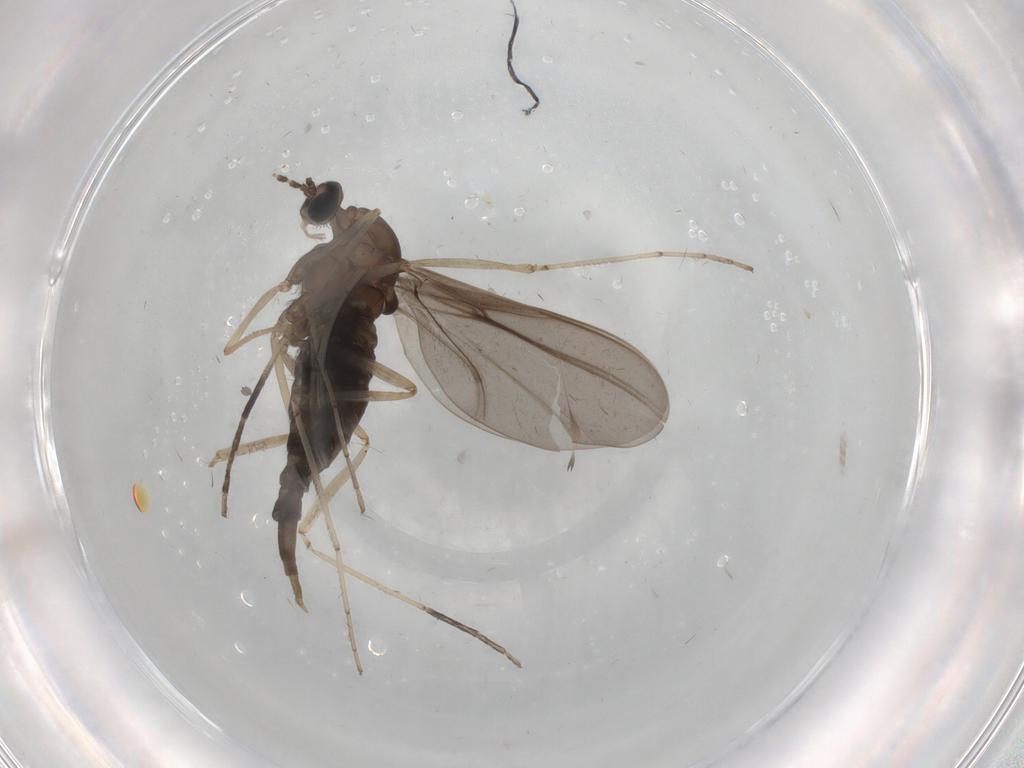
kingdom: Animalia
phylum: Arthropoda
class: Insecta
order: Diptera
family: Chironomidae
